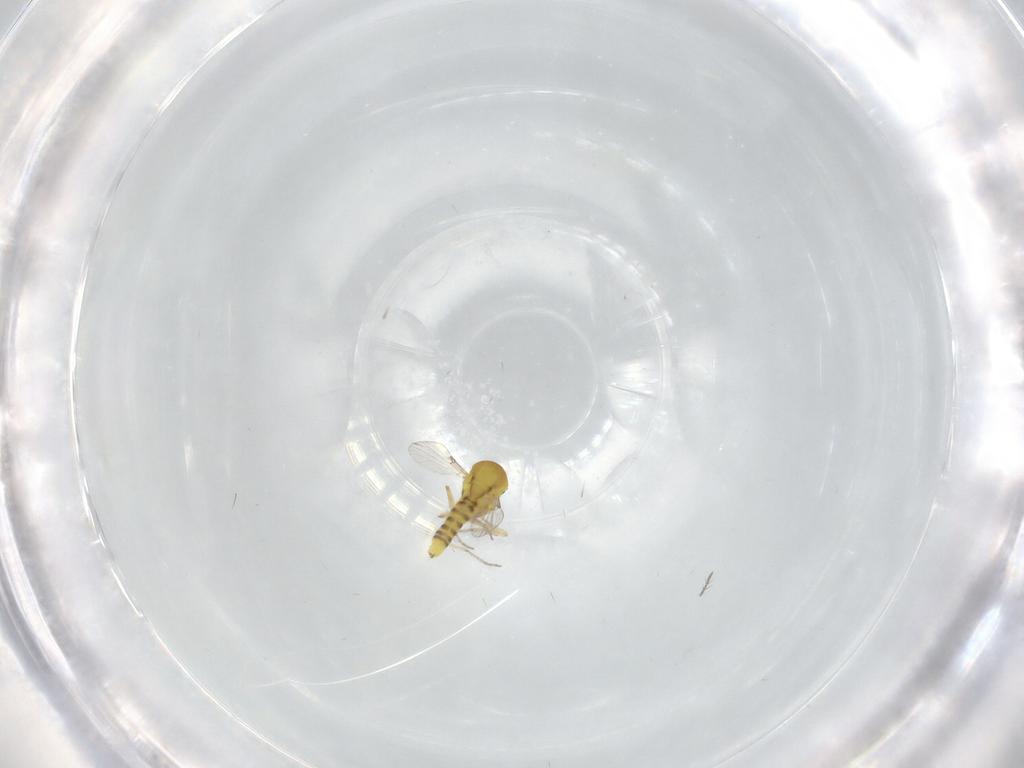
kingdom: Animalia
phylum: Arthropoda
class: Insecta
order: Diptera
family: Ceratopogonidae
